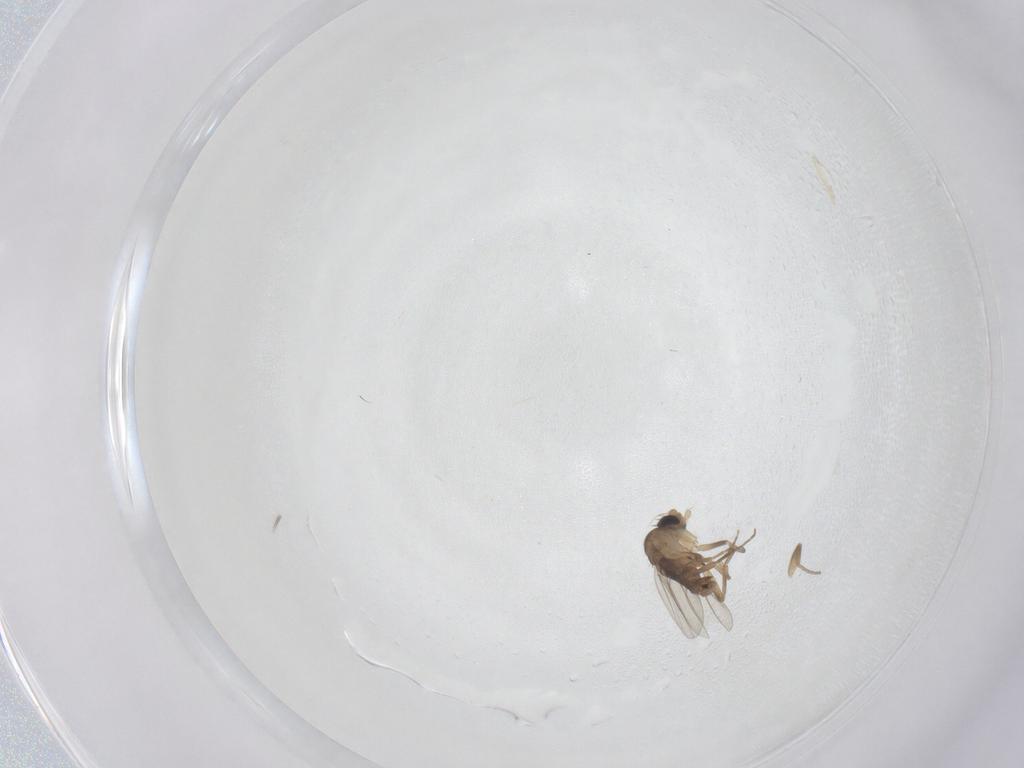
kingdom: Animalia
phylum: Arthropoda
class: Insecta
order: Diptera
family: Phoridae
